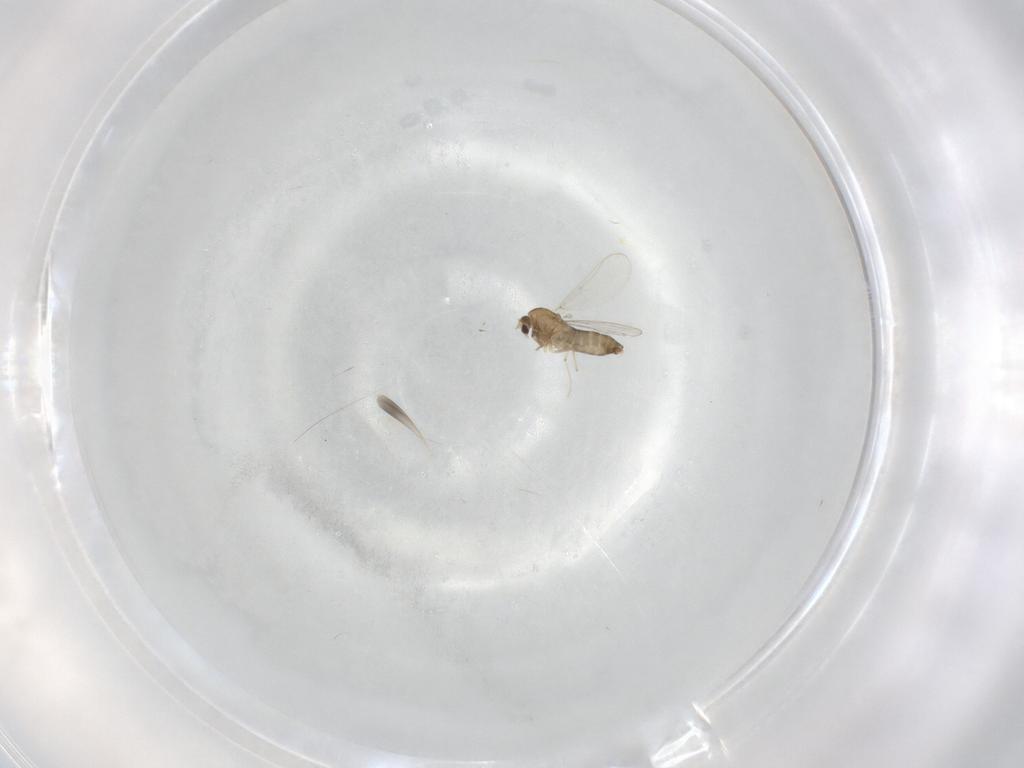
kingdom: Animalia
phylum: Arthropoda
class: Insecta
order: Diptera
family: Chironomidae
